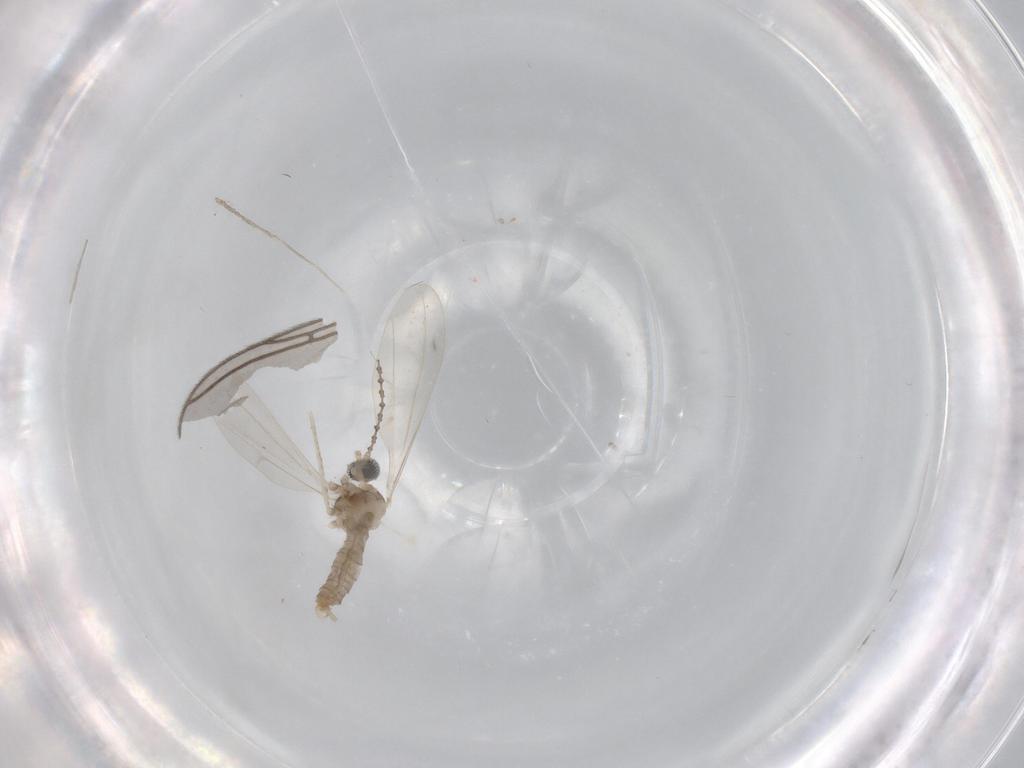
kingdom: Animalia
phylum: Arthropoda
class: Insecta
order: Diptera
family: Cecidomyiidae
